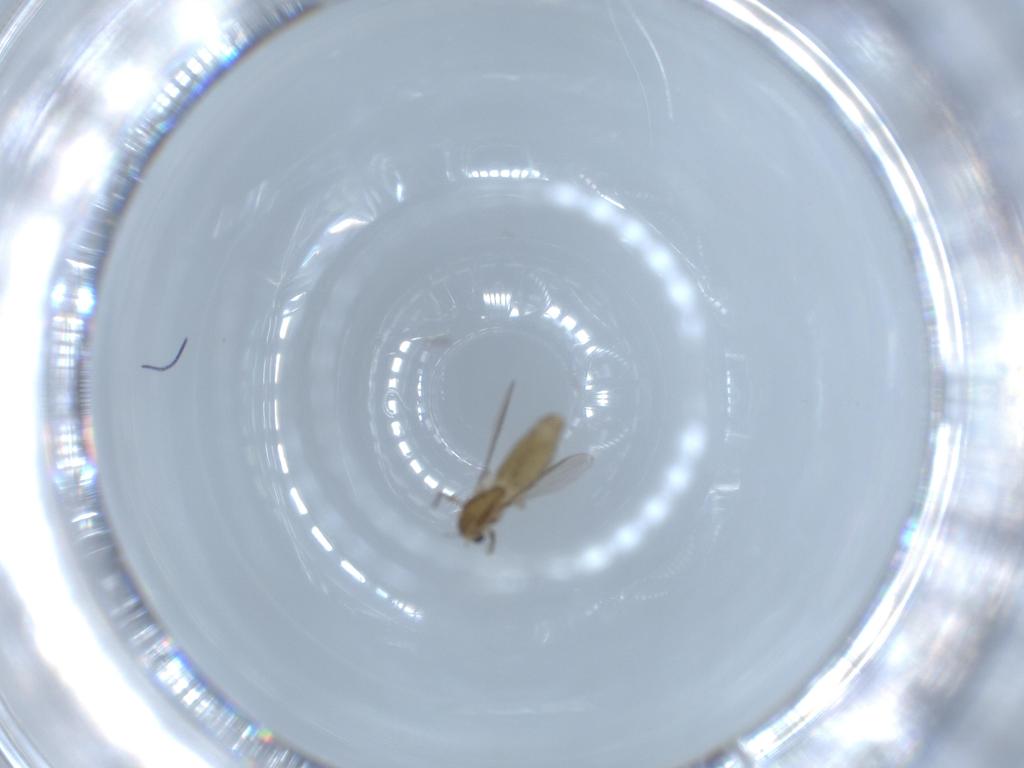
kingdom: Animalia
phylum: Arthropoda
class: Insecta
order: Diptera
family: Chironomidae
